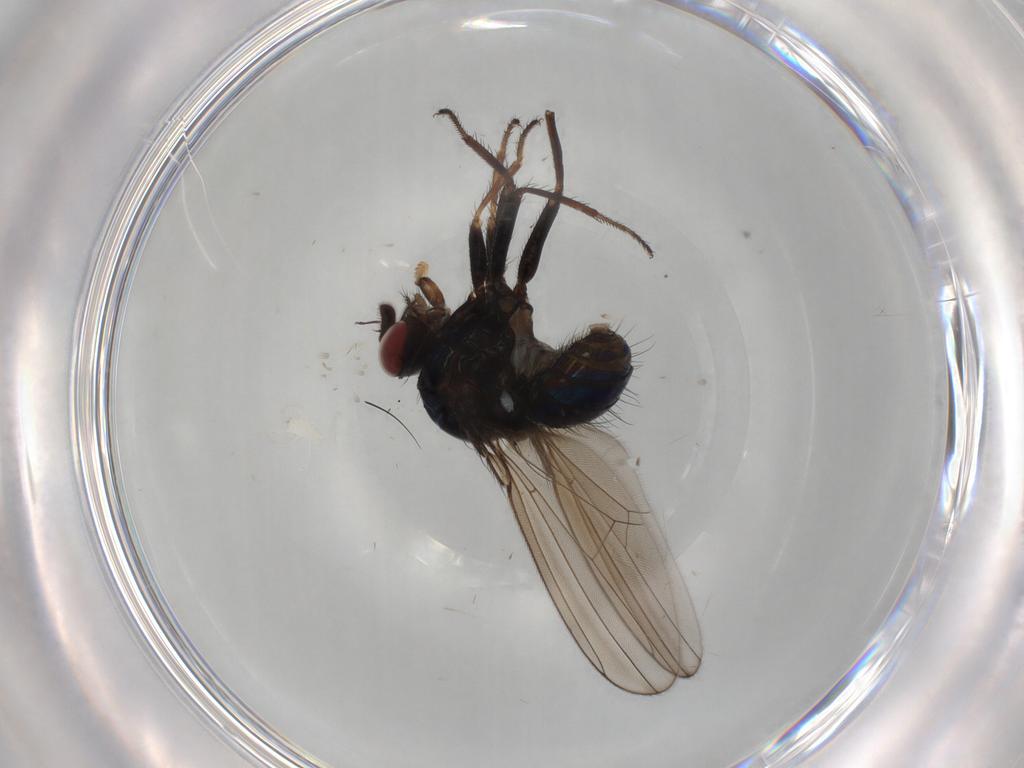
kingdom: Animalia
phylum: Arthropoda
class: Insecta
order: Diptera
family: Ephydridae
